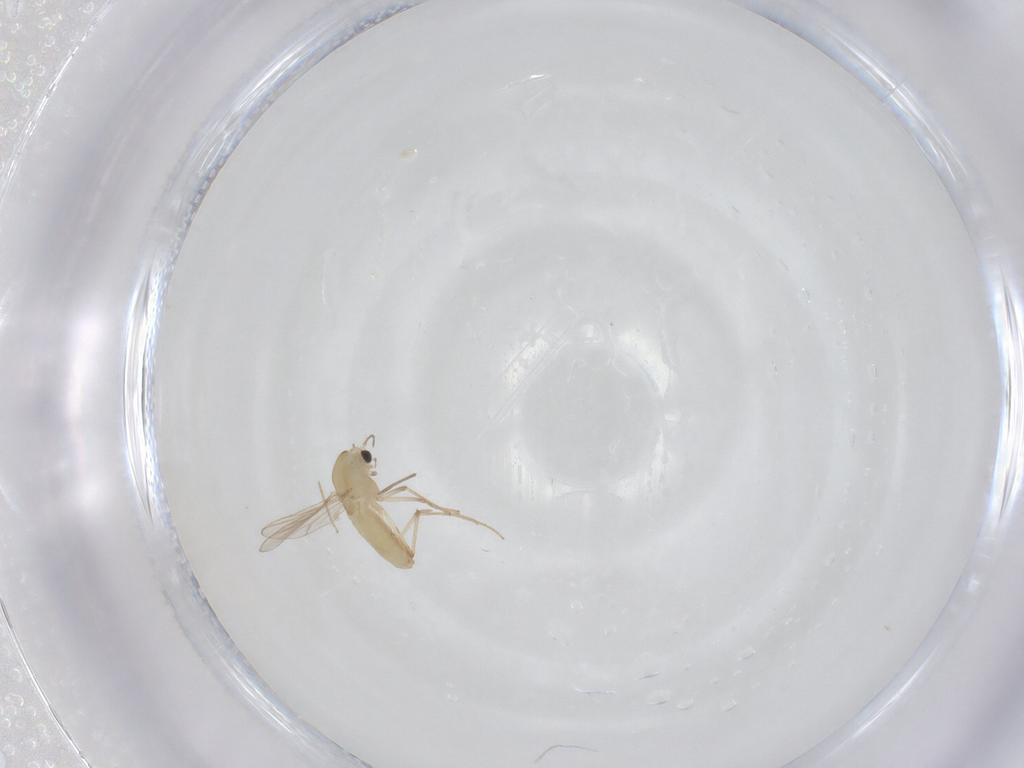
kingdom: Animalia
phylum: Arthropoda
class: Insecta
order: Diptera
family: Chironomidae
